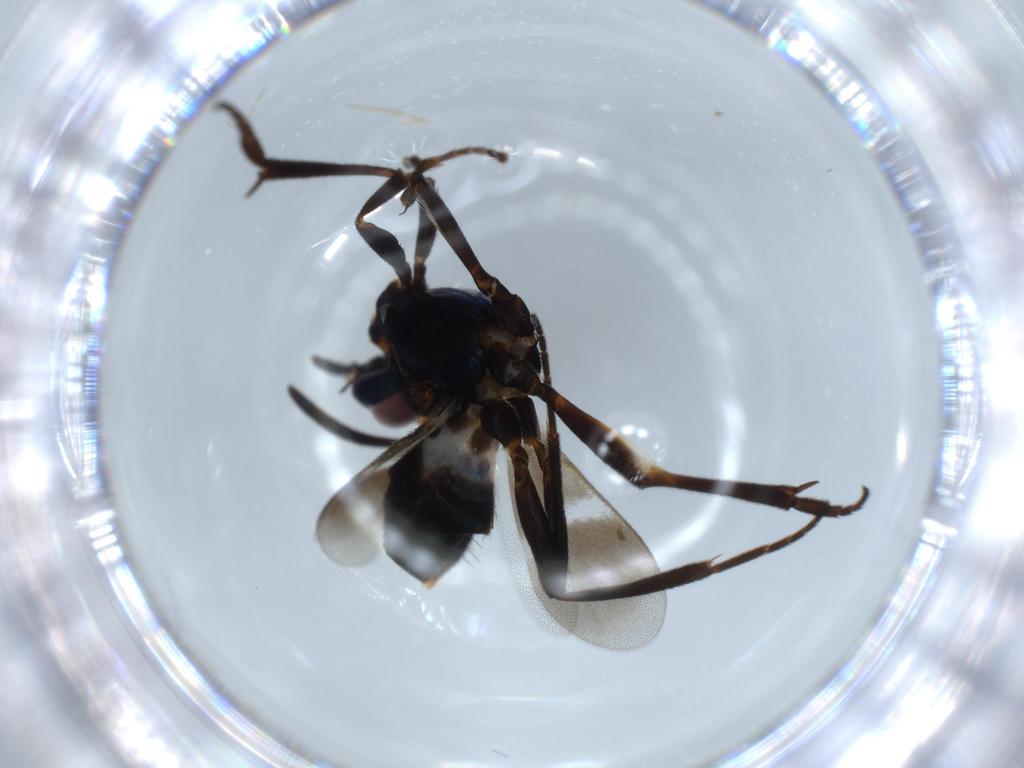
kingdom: Animalia
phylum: Arthropoda
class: Insecta
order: Hymenoptera
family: Eupelmidae
